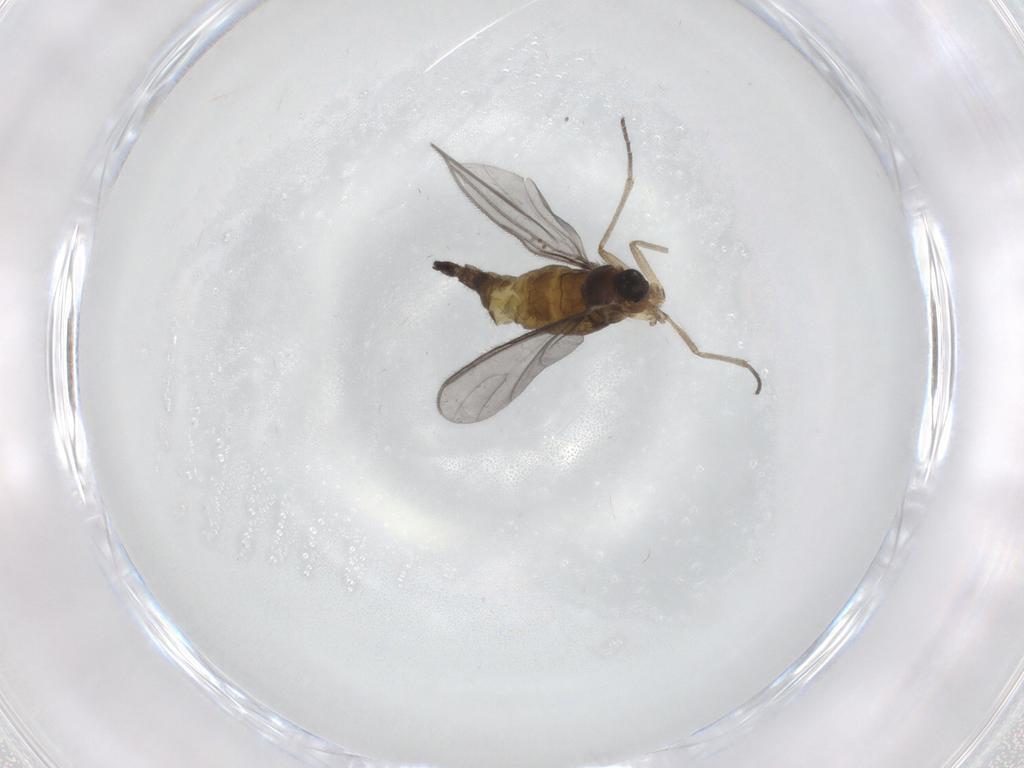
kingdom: Animalia
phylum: Arthropoda
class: Insecta
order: Diptera
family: Sciaridae
